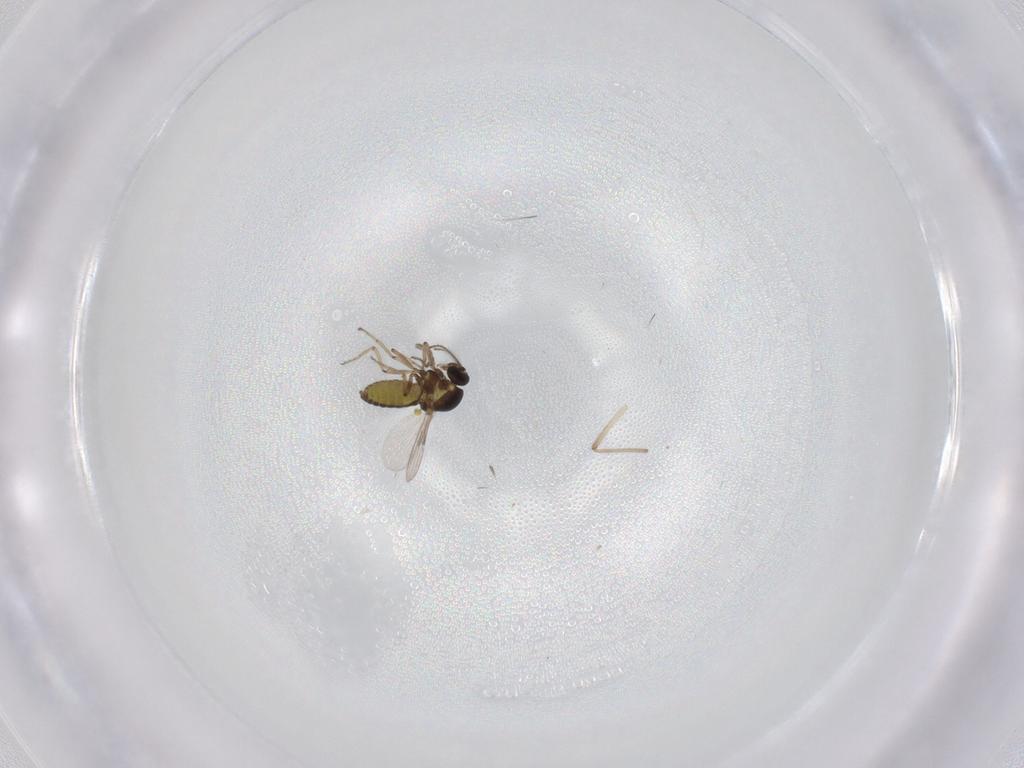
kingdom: Animalia
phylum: Arthropoda
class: Insecta
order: Diptera
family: Ceratopogonidae
